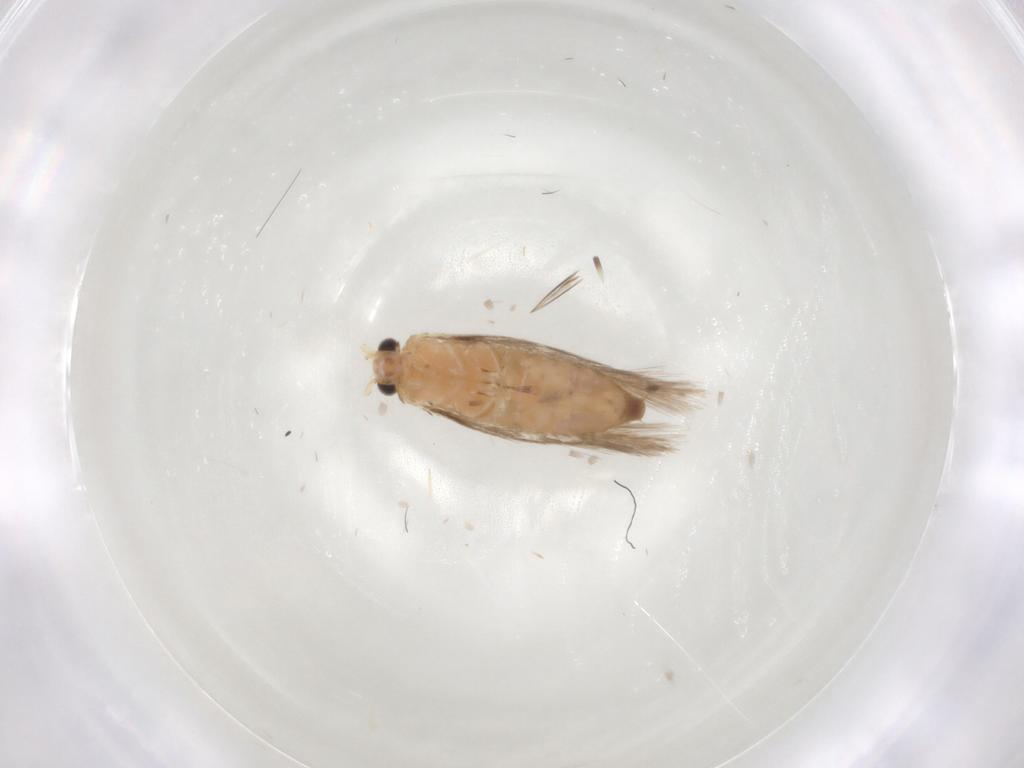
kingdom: Animalia
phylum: Arthropoda
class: Insecta
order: Lepidoptera
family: Nepticulidae
